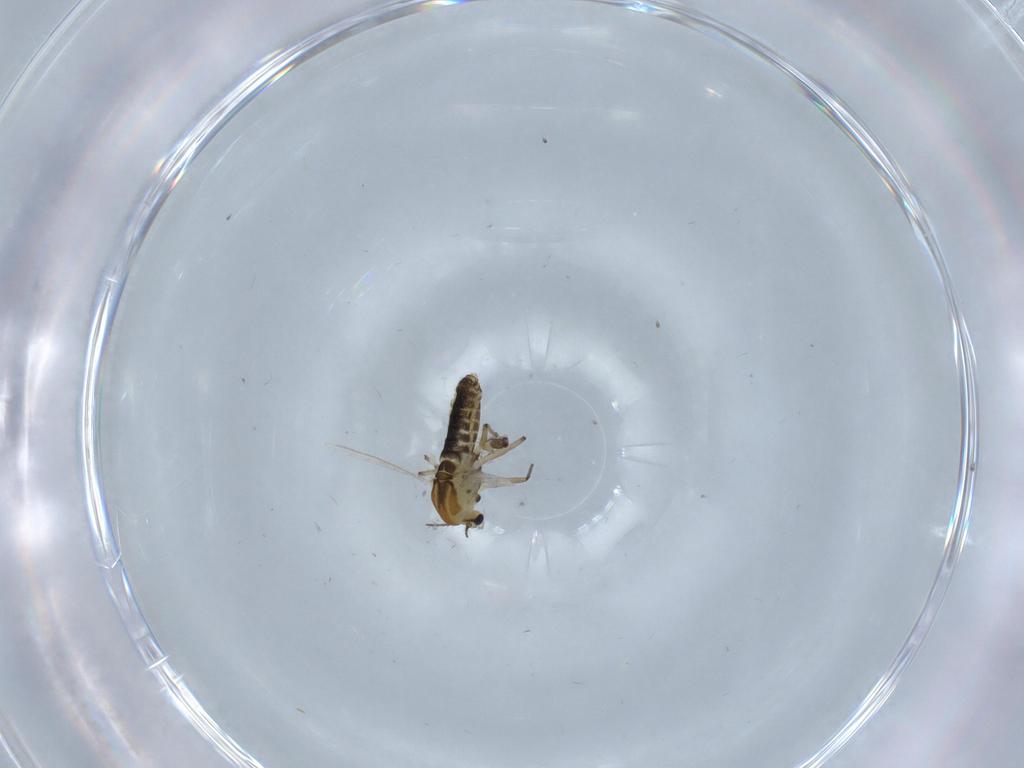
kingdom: Animalia
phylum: Arthropoda
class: Insecta
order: Diptera
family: Chironomidae
